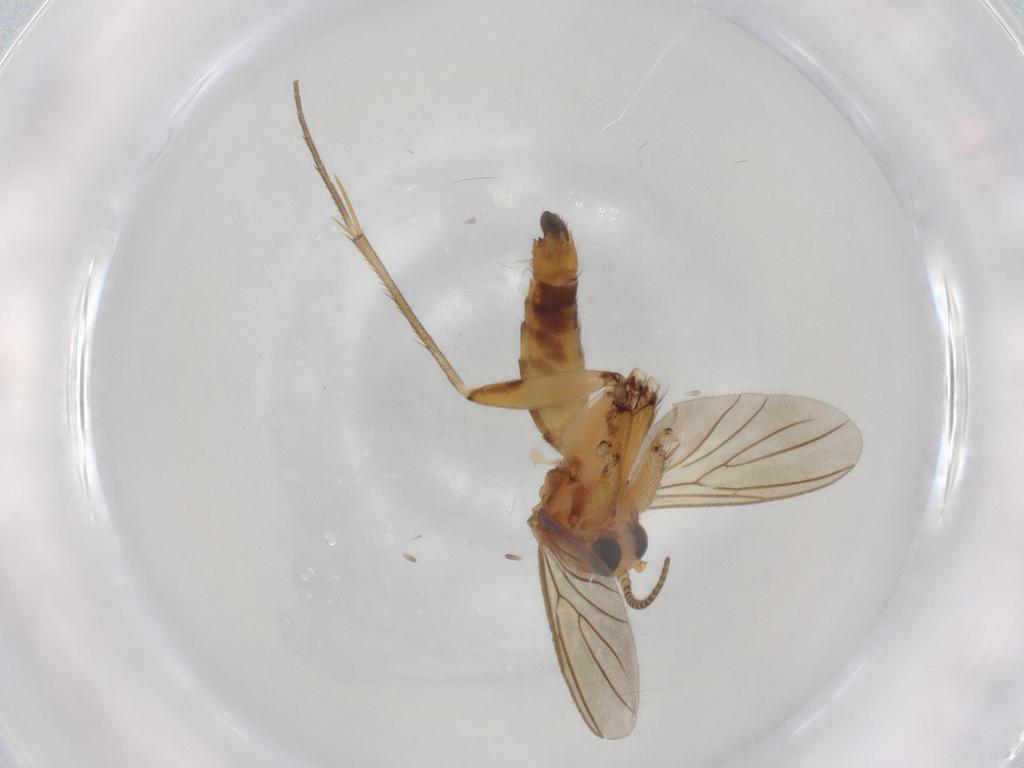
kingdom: Animalia
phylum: Arthropoda
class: Insecta
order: Diptera
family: Mycetophilidae
